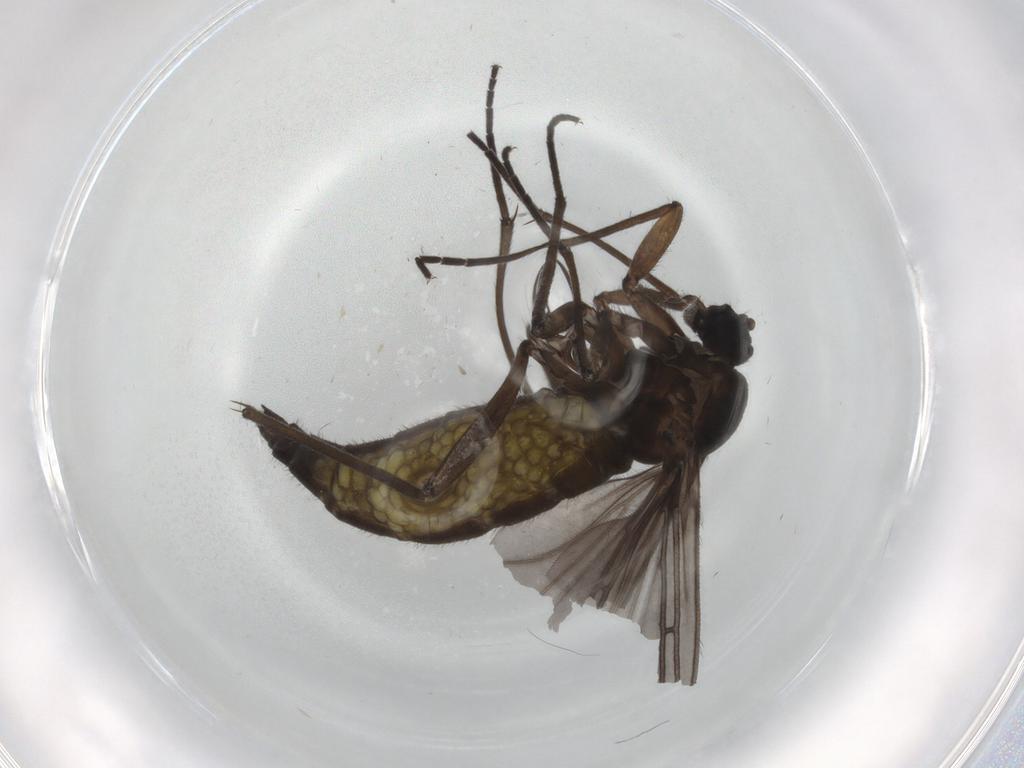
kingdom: Animalia
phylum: Arthropoda
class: Insecta
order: Diptera
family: Sciaridae
